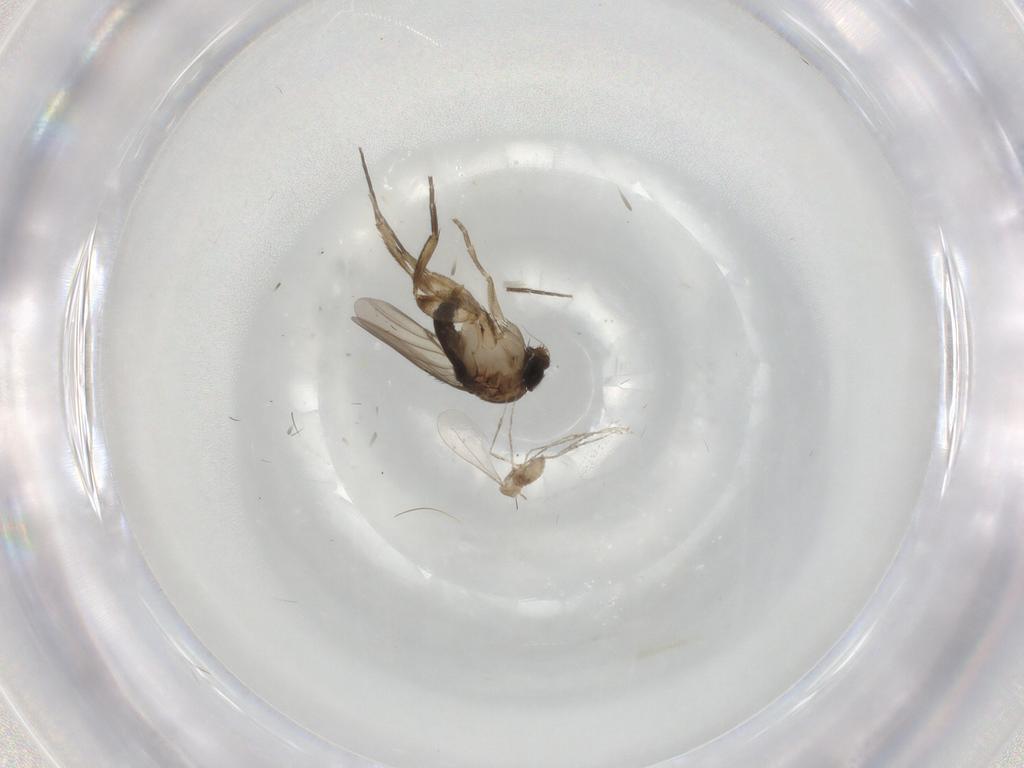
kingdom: Animalia
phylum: Arthropoda
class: Insecta
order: Diptera
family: Phoridae
